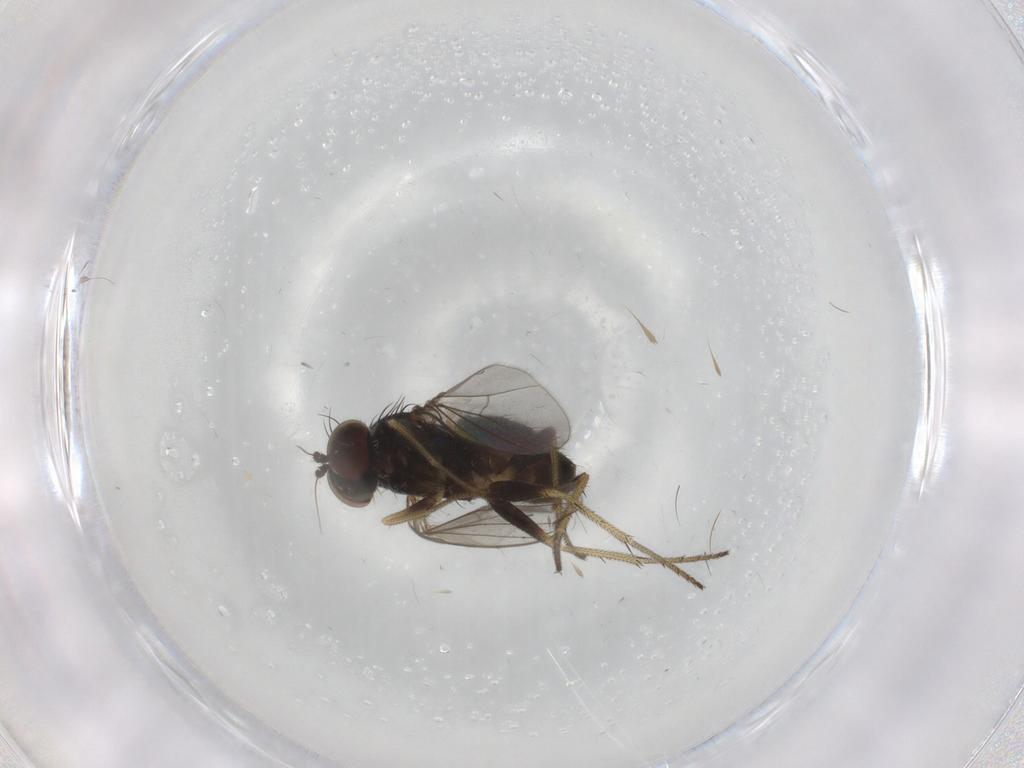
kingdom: Animalia
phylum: Arthropoda
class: Insecta
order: Diptera
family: Chironomidae
